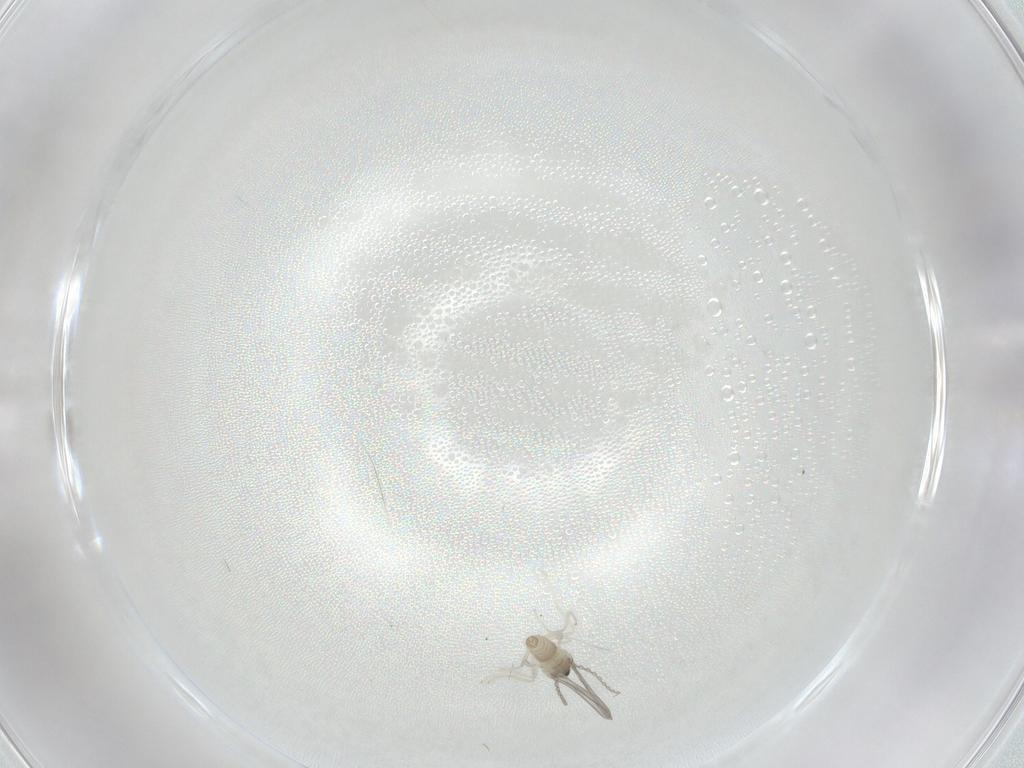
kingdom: Animalia
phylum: Arthropoda
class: Insecta
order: Diptera
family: Cecidomyiidae
